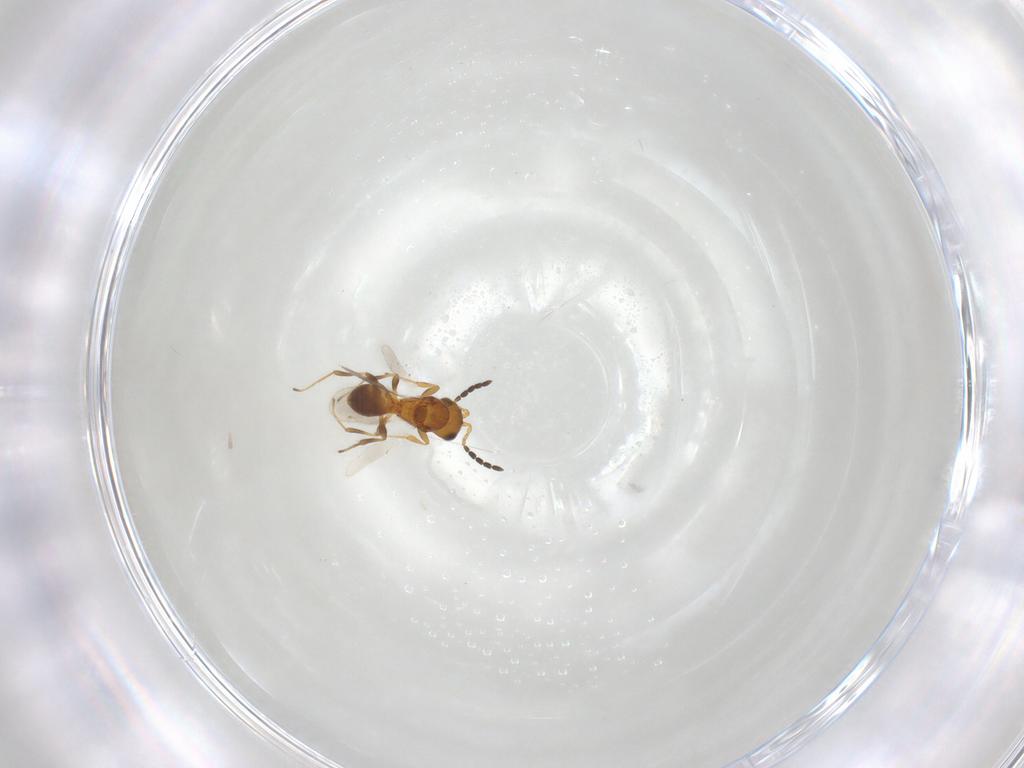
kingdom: Animalia
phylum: Arthropoda
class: Insecta
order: Hymenoptera
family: Platygastridae
